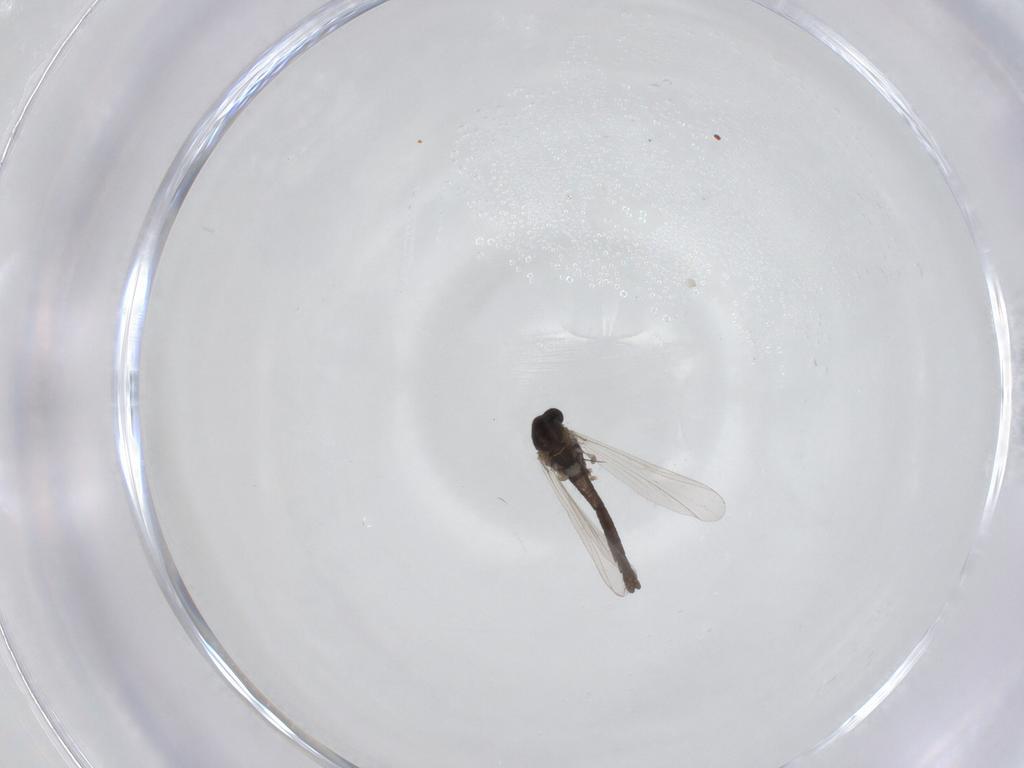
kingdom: Animalia
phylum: Arthropoda
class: Insecta
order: Diptera
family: Chironomidae
